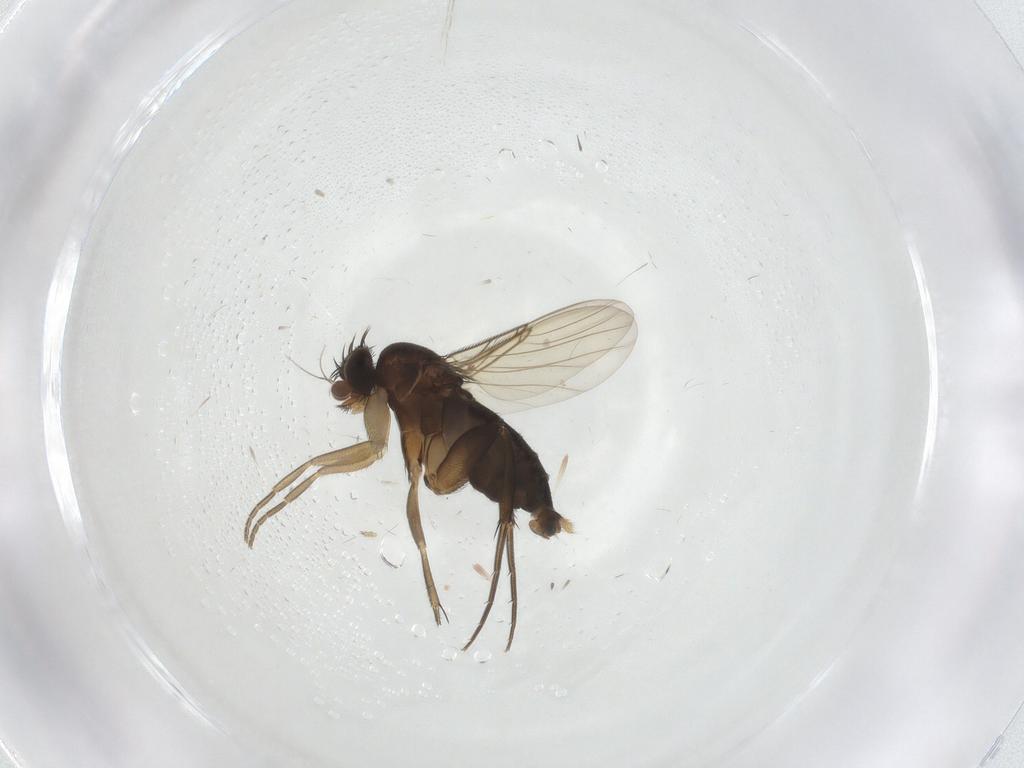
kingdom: Animalia
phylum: Arthropoda
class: Insecta
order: Diptera
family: Phoridae
